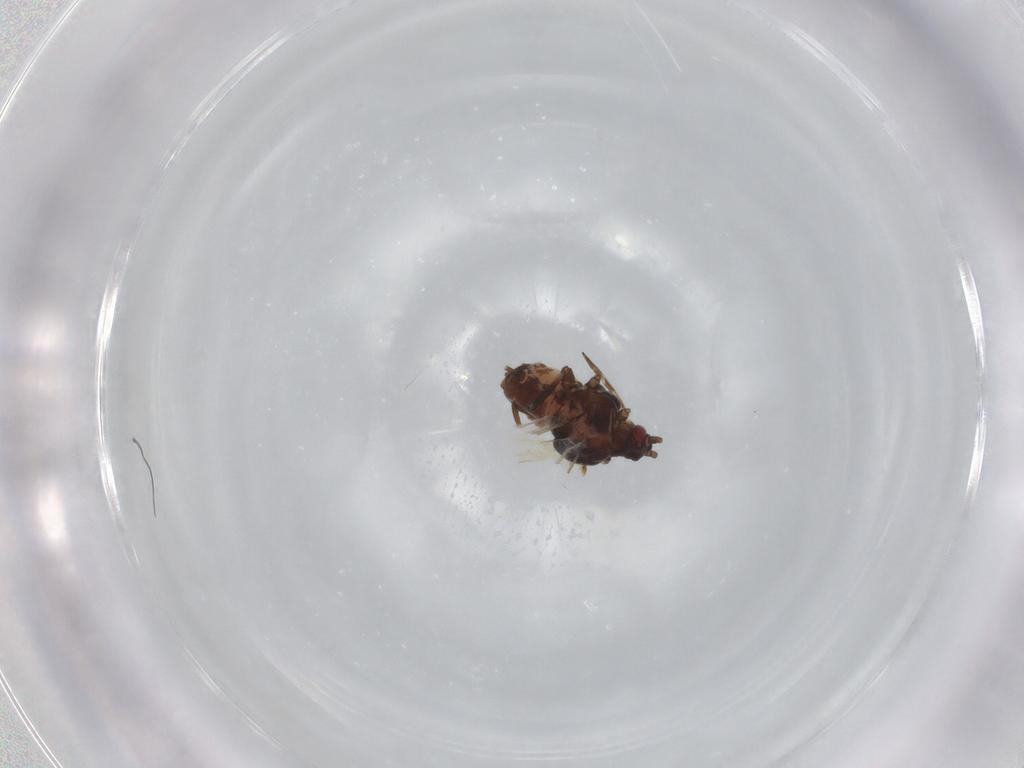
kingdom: Animalia
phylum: Arthropoda
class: Insecta
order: Hemiptera
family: Aphididae
